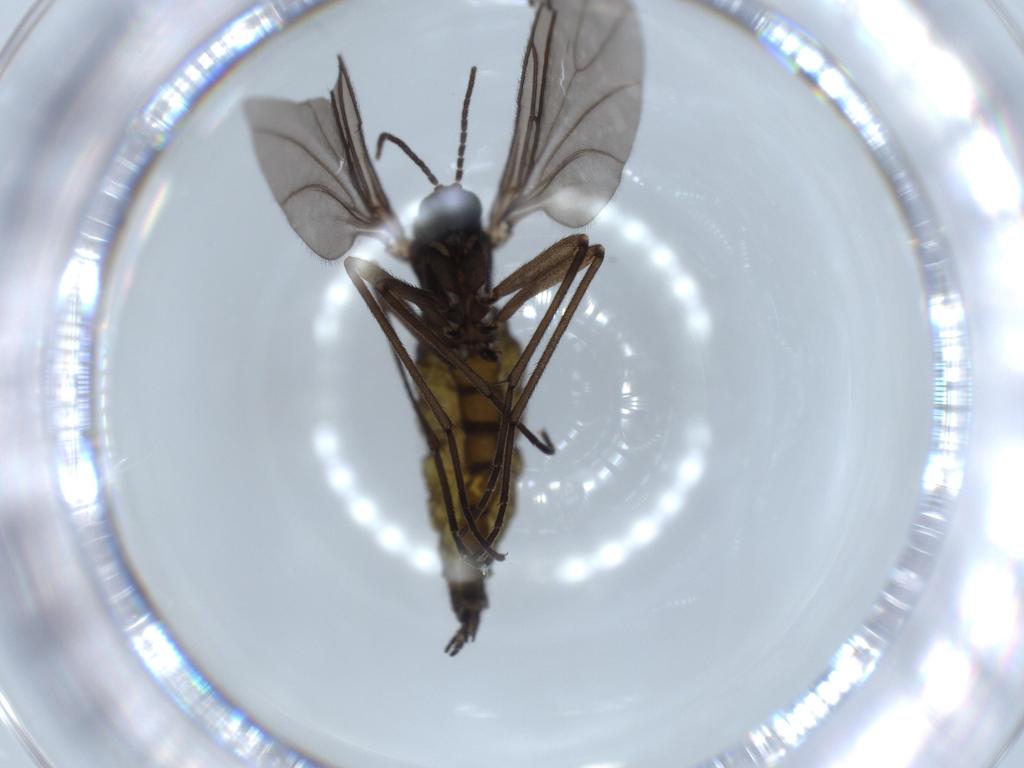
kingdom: Animalia
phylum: Arthropoda
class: Insecta
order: Diptera
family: Sciaridae
